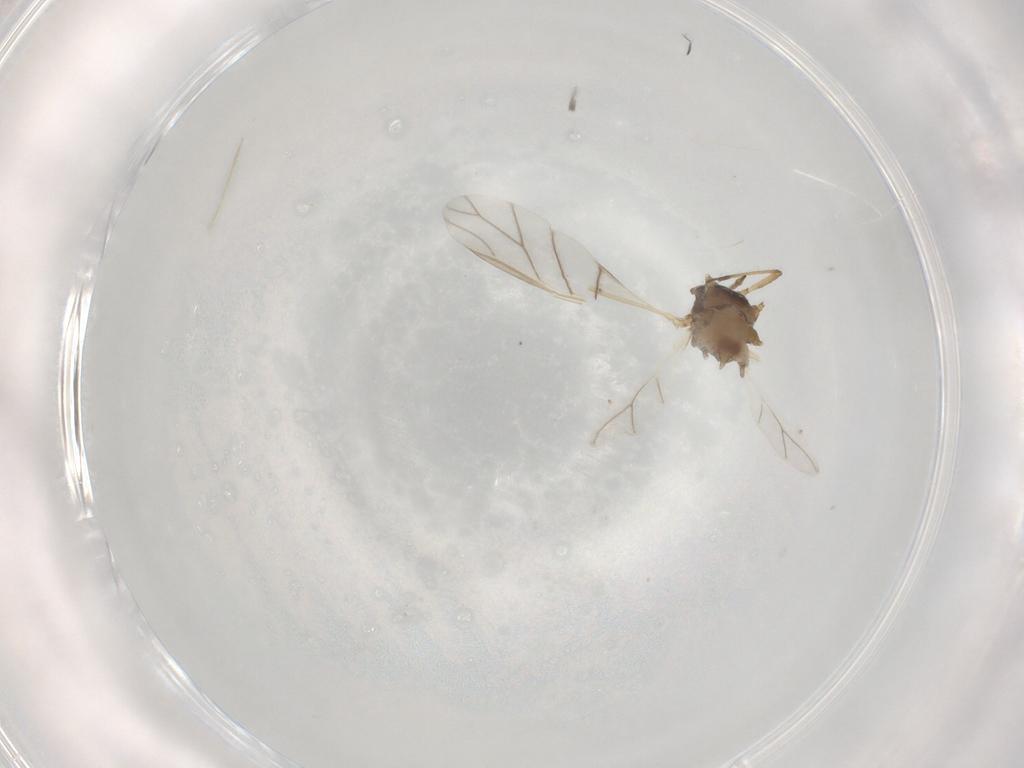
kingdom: Animalia
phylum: Arthropoda
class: Insecta
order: Hemiptera
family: Aphididae
